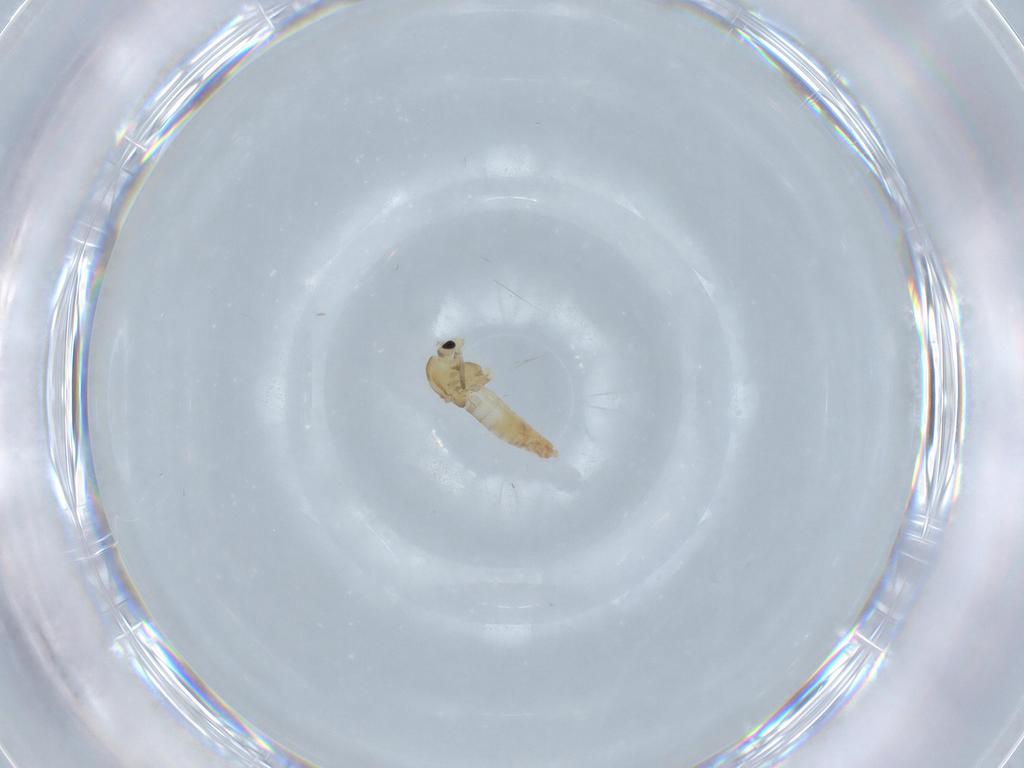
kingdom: Animalia
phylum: Arthropoda
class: Insecta
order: Diptera
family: Chironomidae
